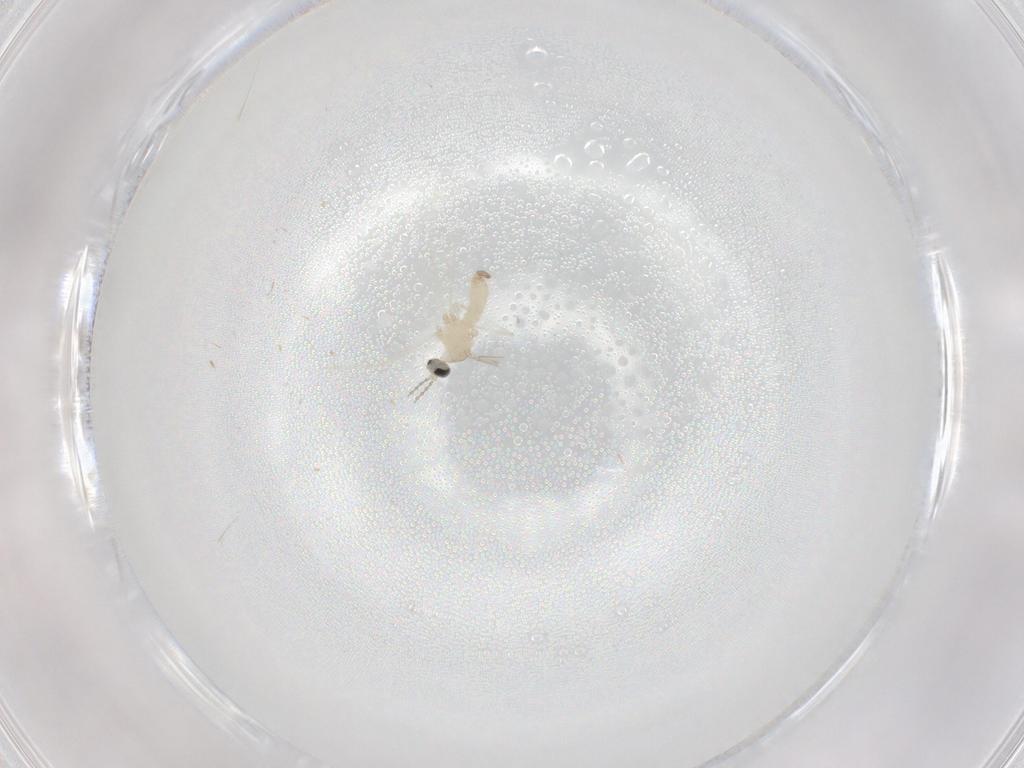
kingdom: Animalia
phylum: Arthropoda
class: Insecta
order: Diptera
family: Cecidomyiidae
